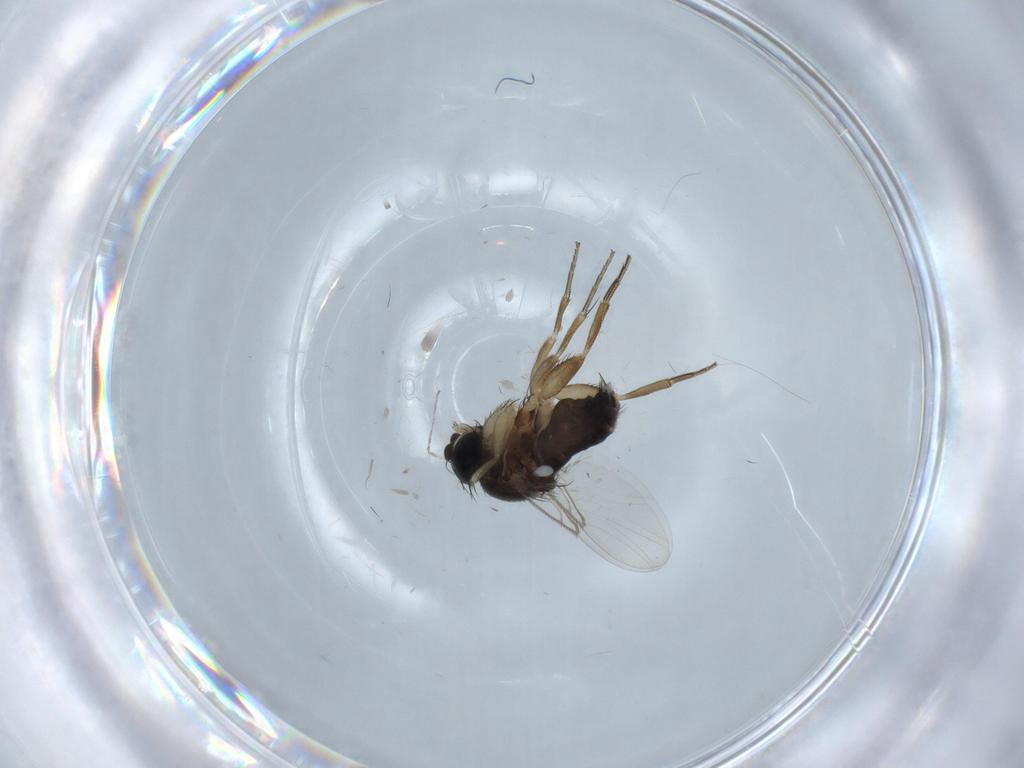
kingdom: Animalia
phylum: Arthropoda
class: Insecta
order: Diptera
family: Cecidomyiidae
